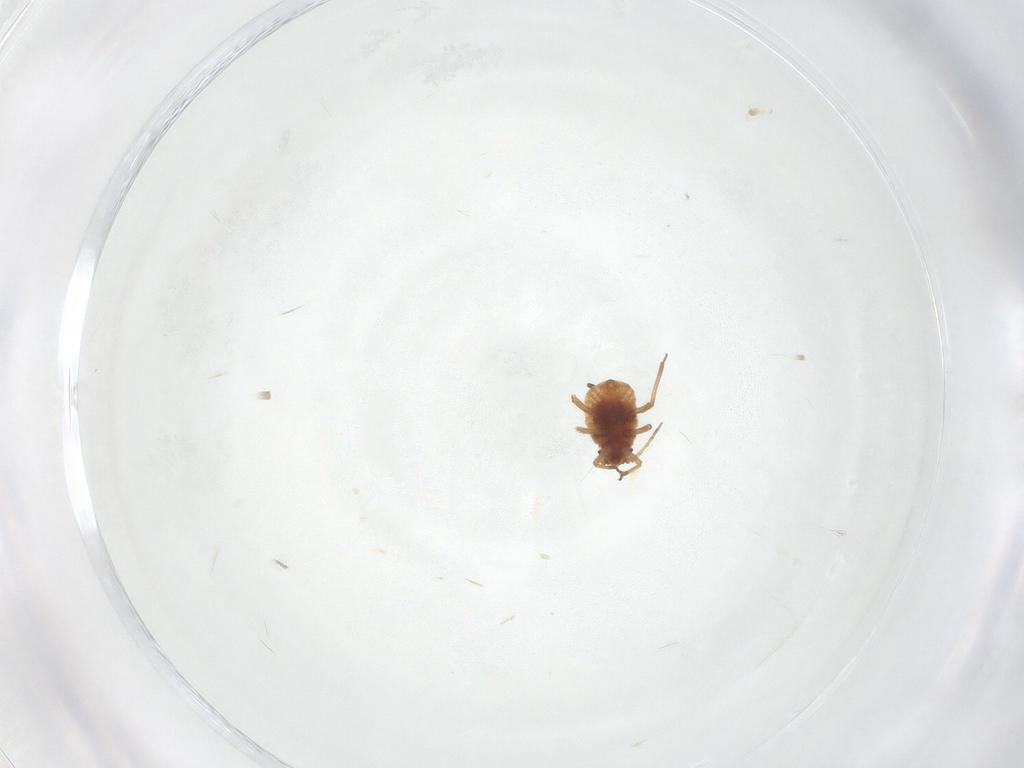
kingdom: Animalia
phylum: Arthropoda
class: Insecta
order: Hemiptera
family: Aphididae
